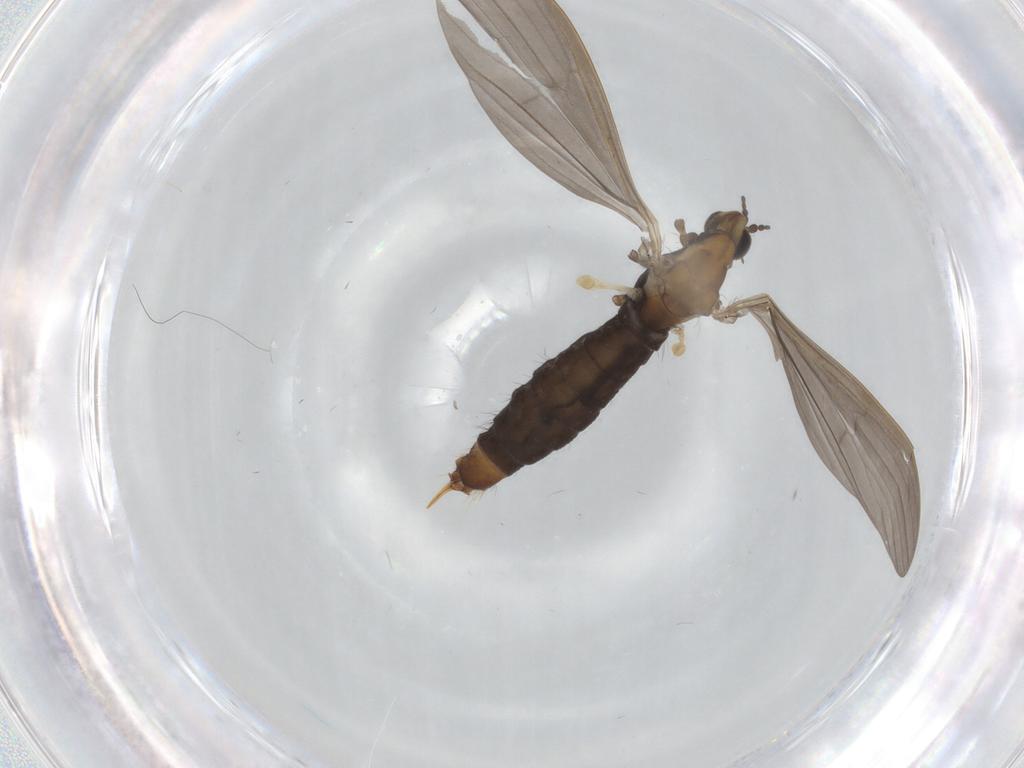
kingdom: Animalia
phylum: Arthropoda
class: Insecta
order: Diptera
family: Limoniidae
